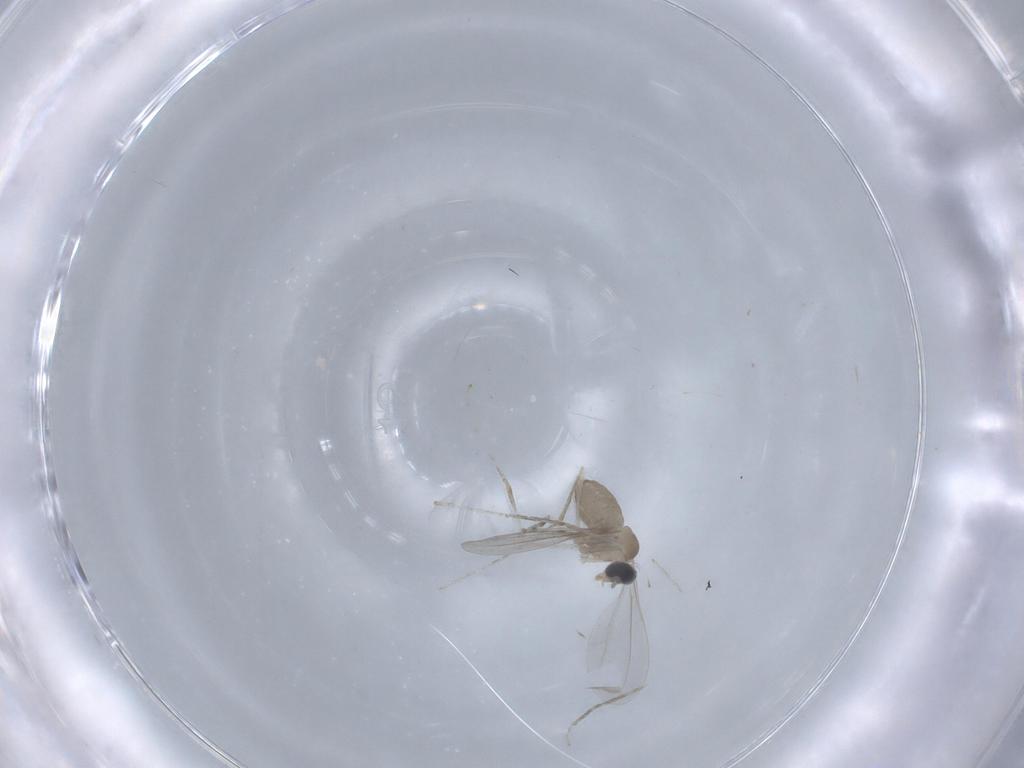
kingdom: Animalia
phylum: Arthropoda
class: Insecta
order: Diptera
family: Cecidomyiidae
